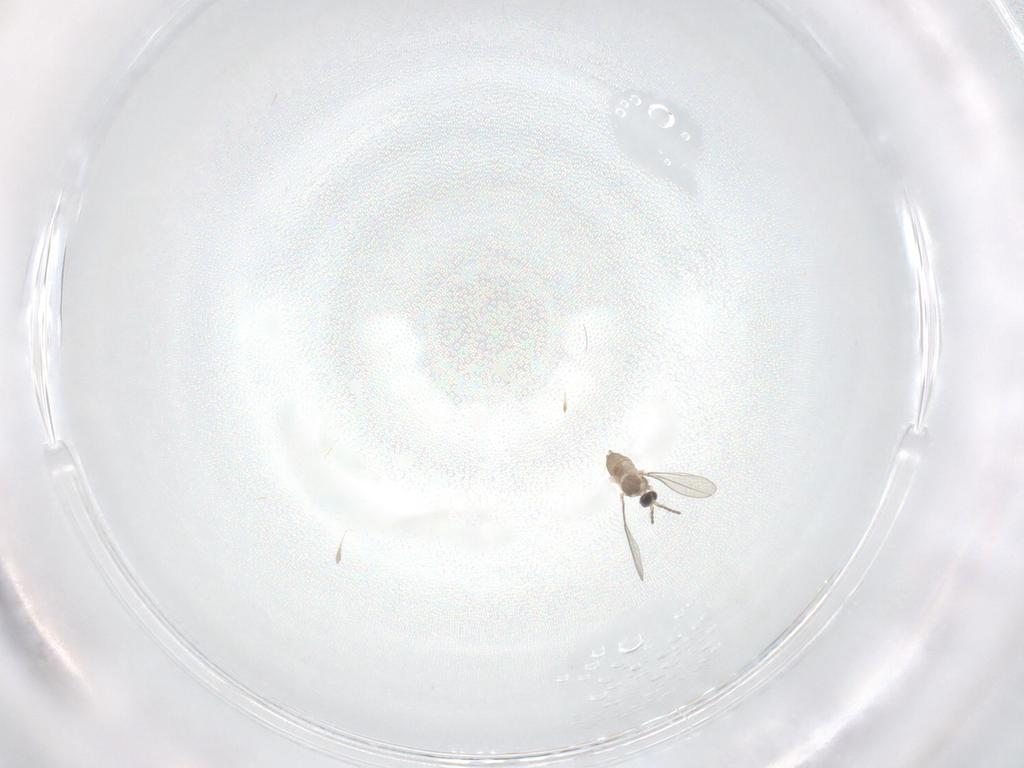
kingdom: Animalia
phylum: Arthropoda
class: Insecta
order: Diptera
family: Cecidomyiidae
